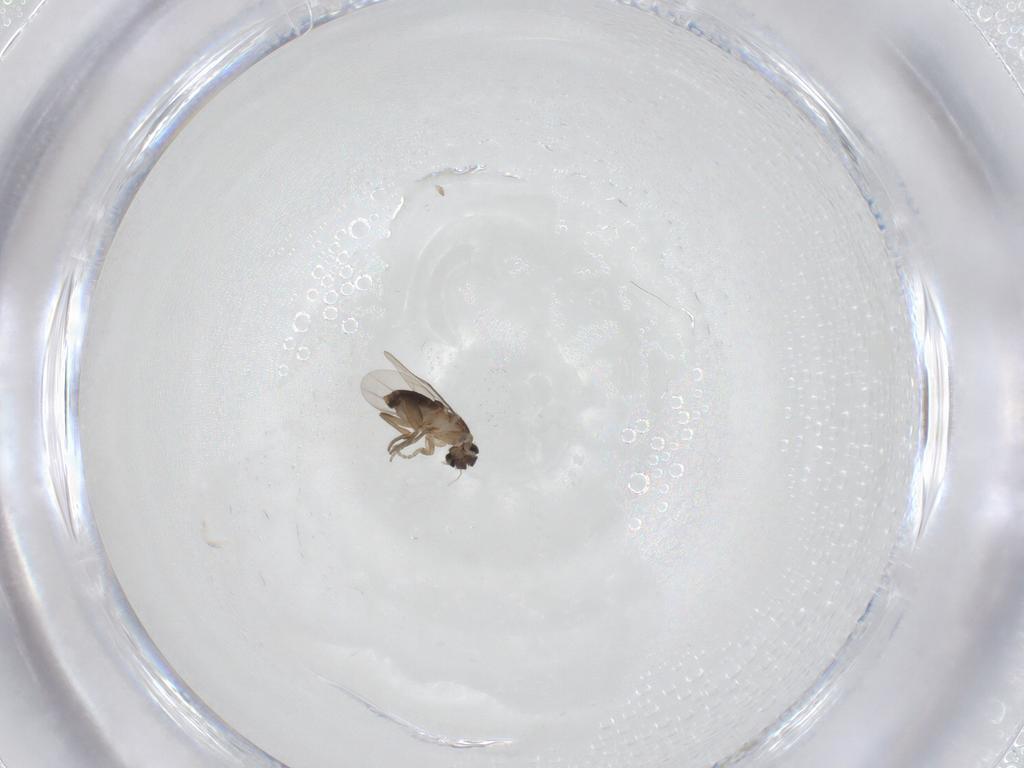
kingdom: Animalia
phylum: Arthropoda
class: Insecta
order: Diptera
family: Phoridae
